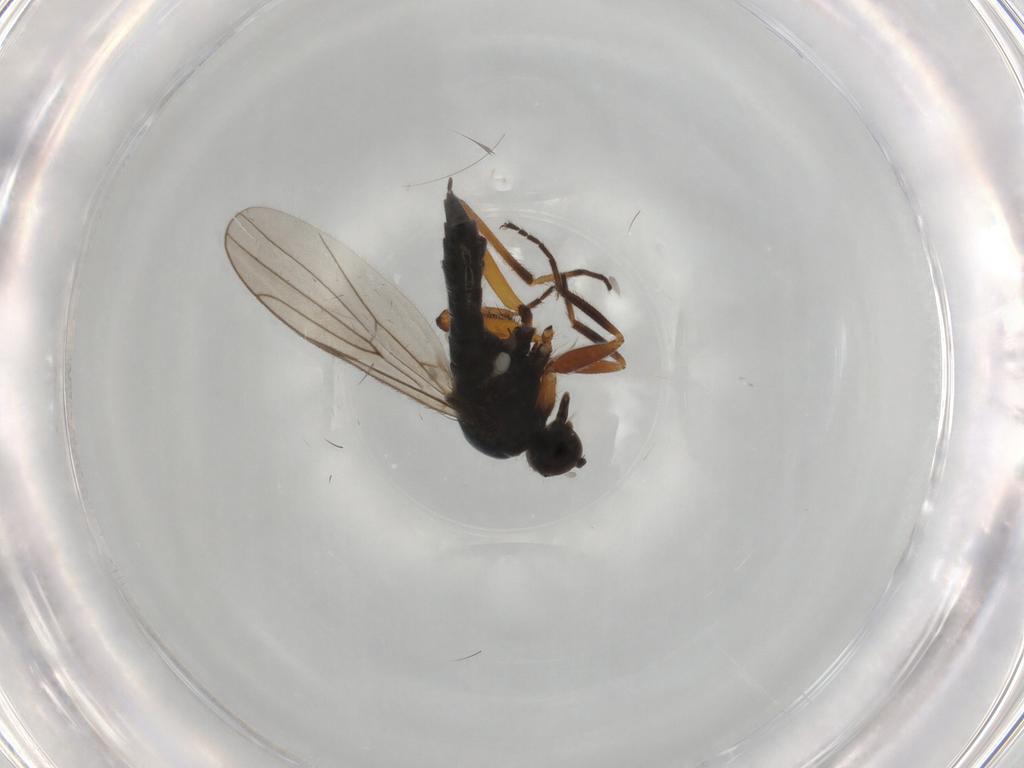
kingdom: Animalia
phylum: Arthropoda
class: Insecta
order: Diptera
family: Hybotidae
